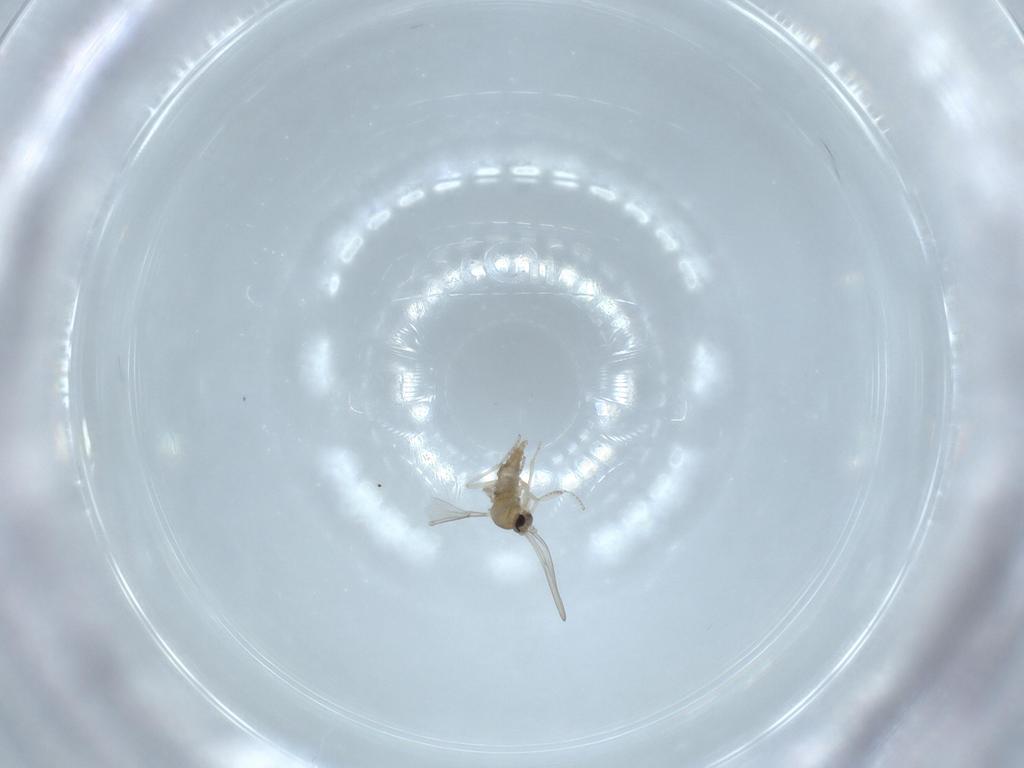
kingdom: Animalia
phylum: Arthropoda
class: Insecta
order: Diptera
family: Cecidomyiidae
